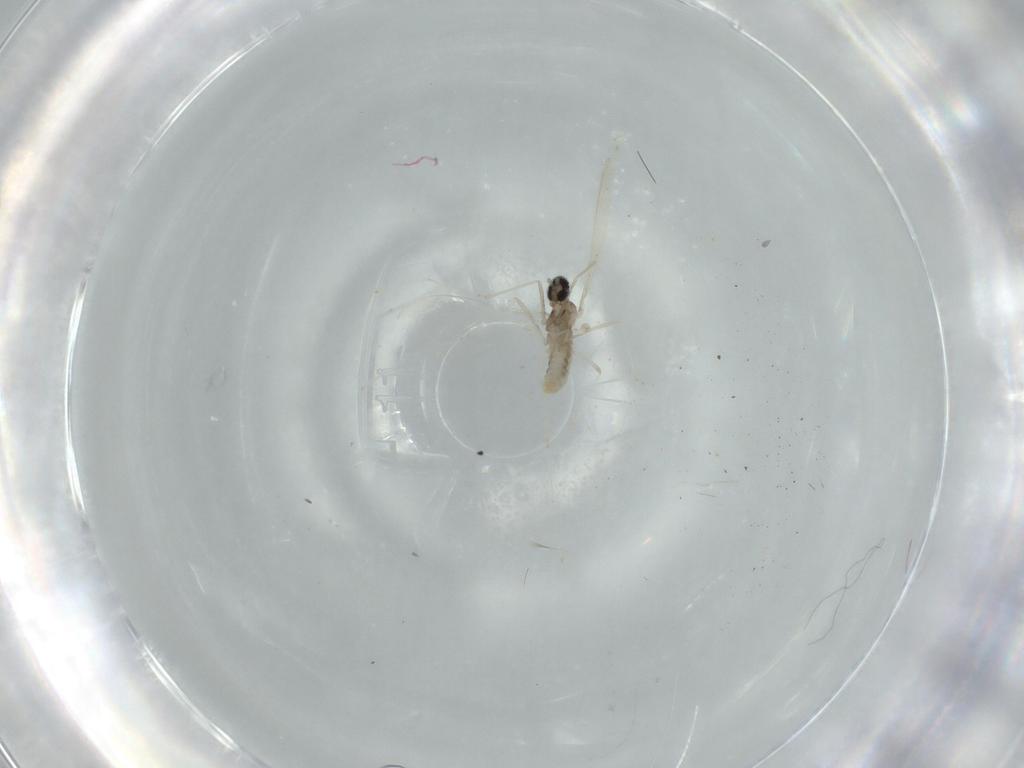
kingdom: Animalia
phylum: Arthropoda
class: Insecta
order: Diptera
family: Cecidomyiidae
